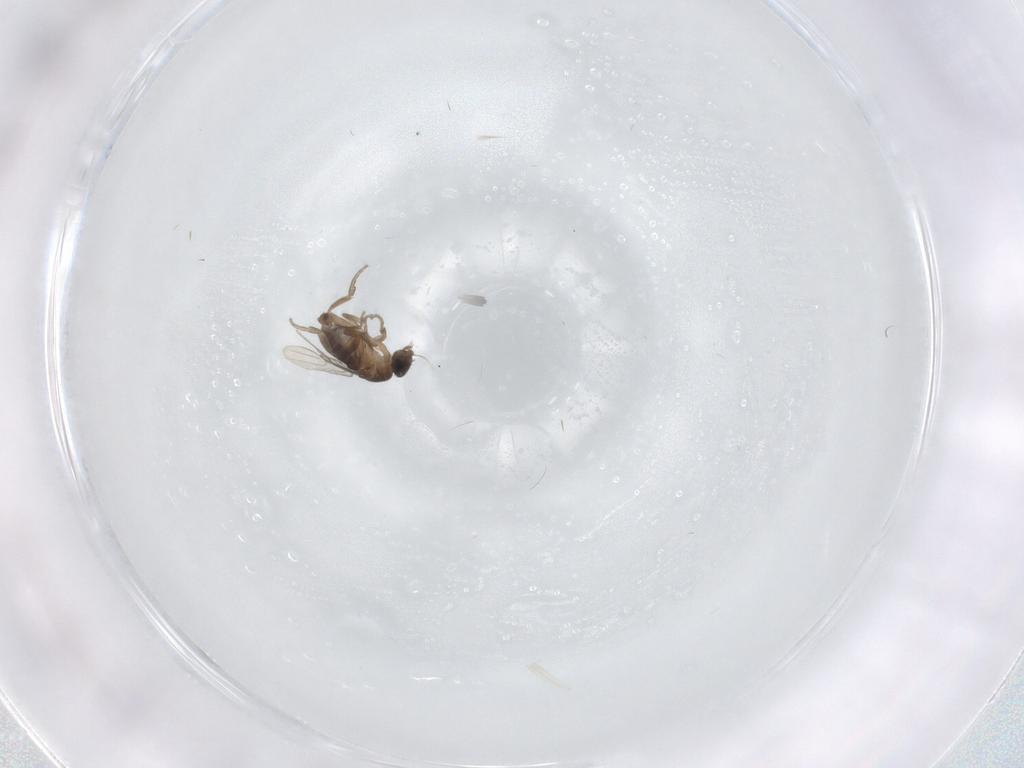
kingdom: Animalia
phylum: Arthropoda
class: Insecta
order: Diptera
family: Phoridae
